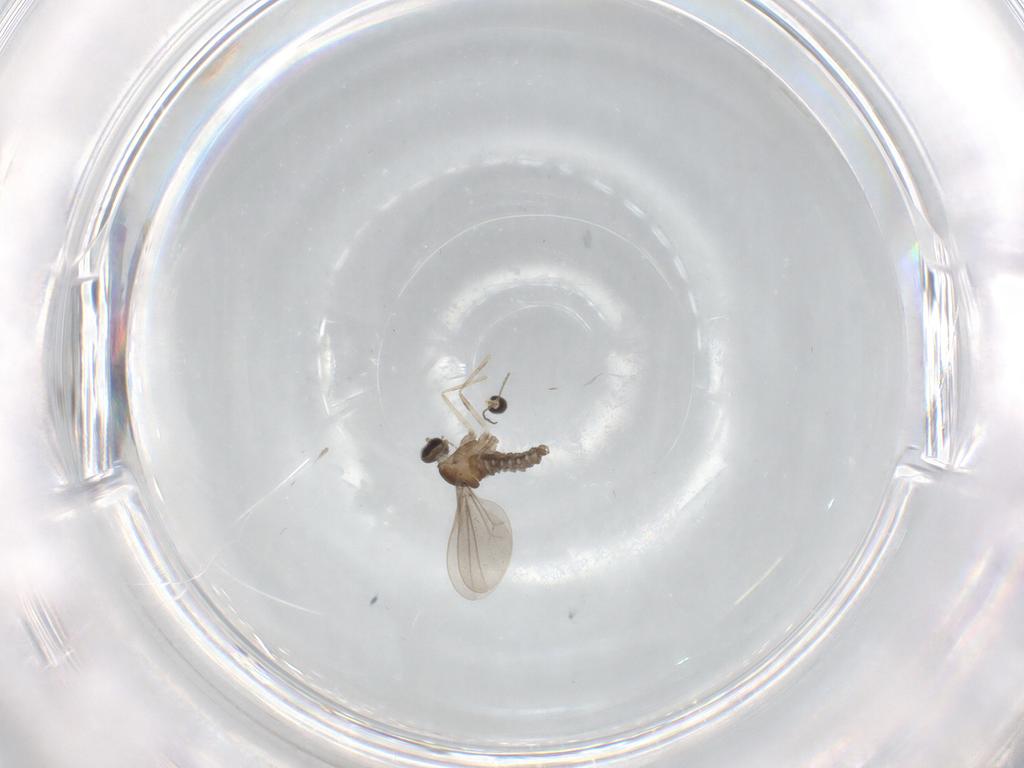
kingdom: Animalia
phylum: Arthropoda
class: Insecta
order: Diptera
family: Cecidomyiidae
